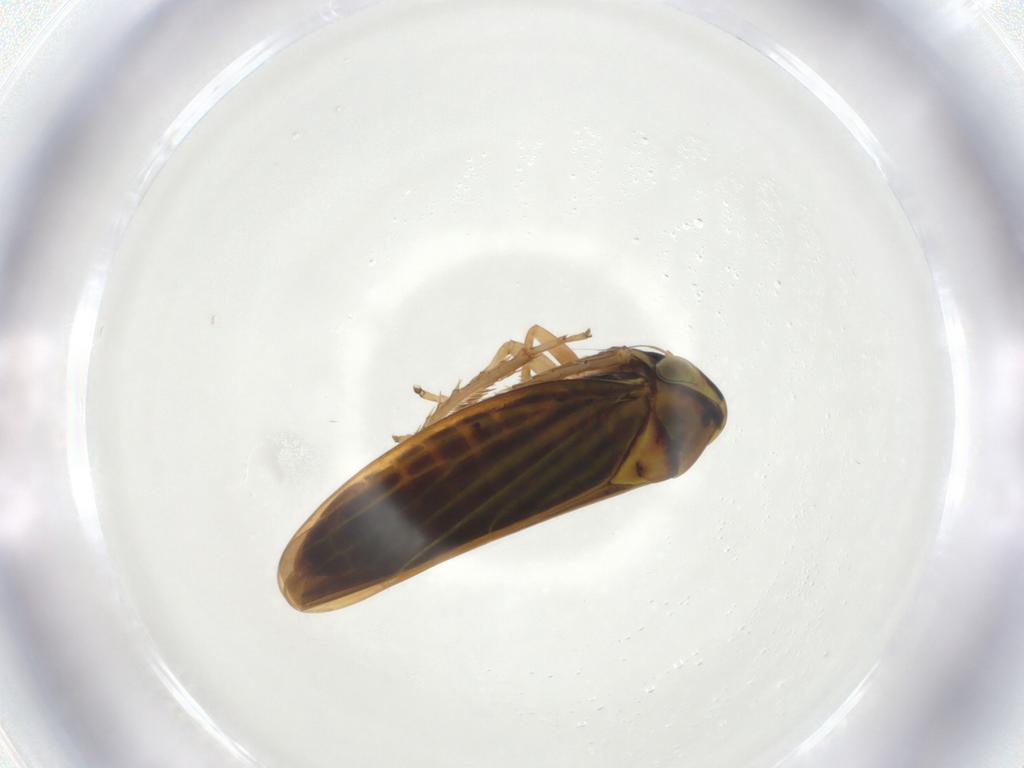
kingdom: Animalia
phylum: Arthropoda
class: Insecta
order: Hemiptera
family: Cicadellidae
